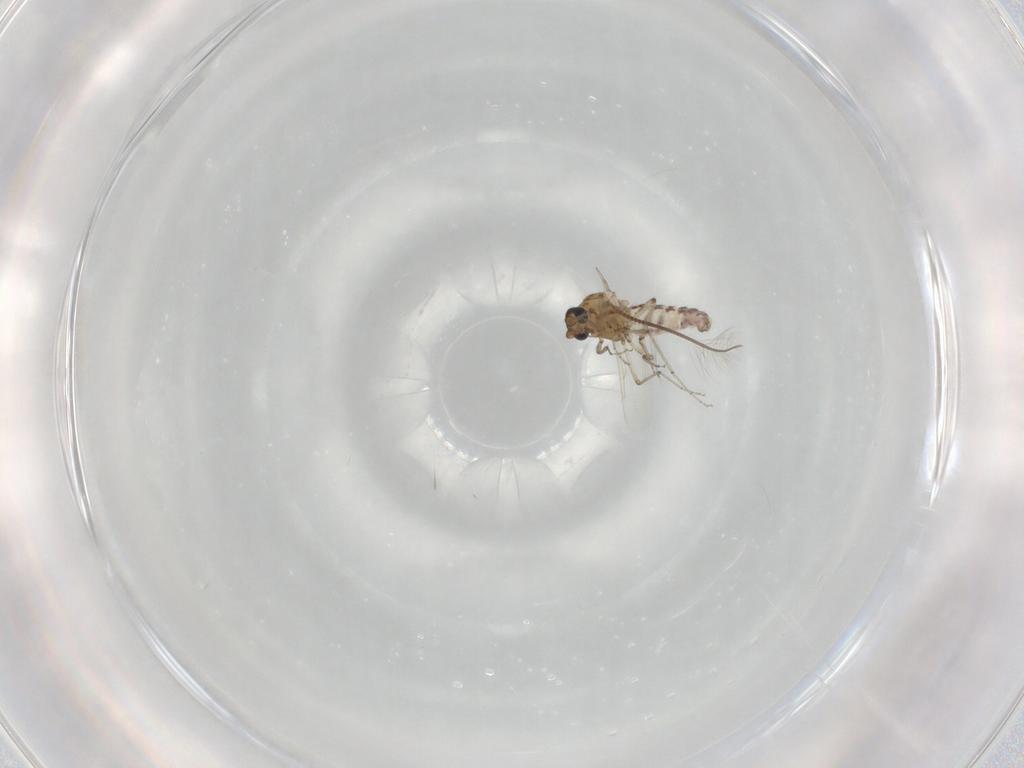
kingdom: Animalia
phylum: Arthropoda
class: Insecta
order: Diptera
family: Ceratopogonidae
